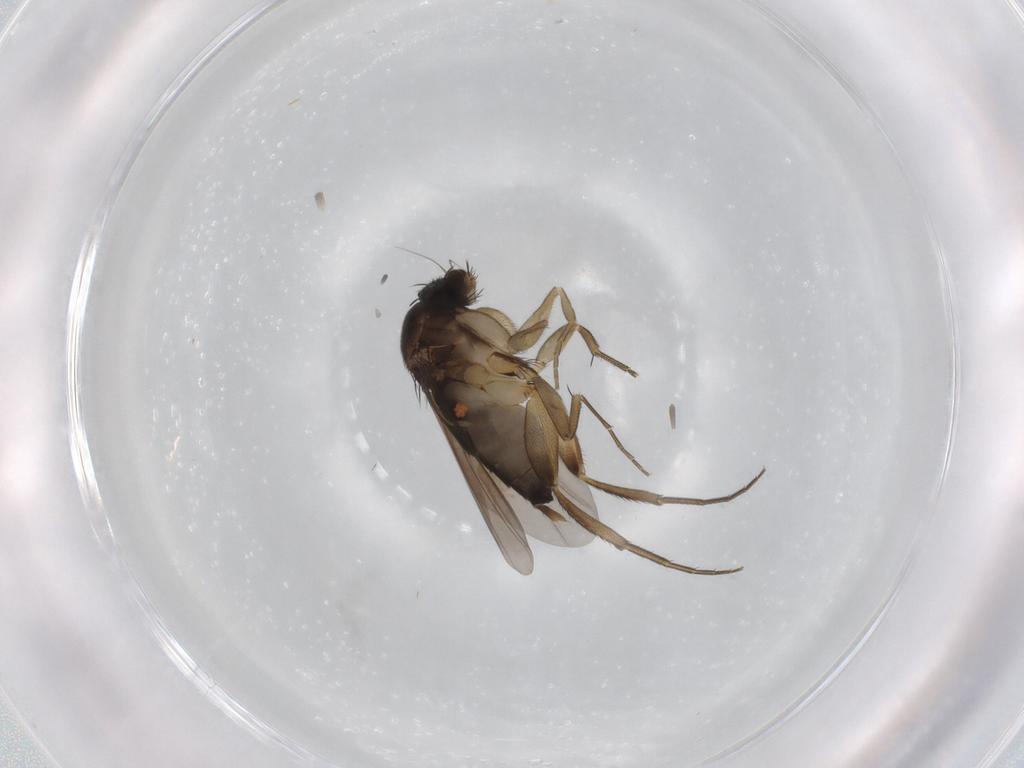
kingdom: Animalia
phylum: Arthropoda
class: Insecta
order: Diptera
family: Phoridae
